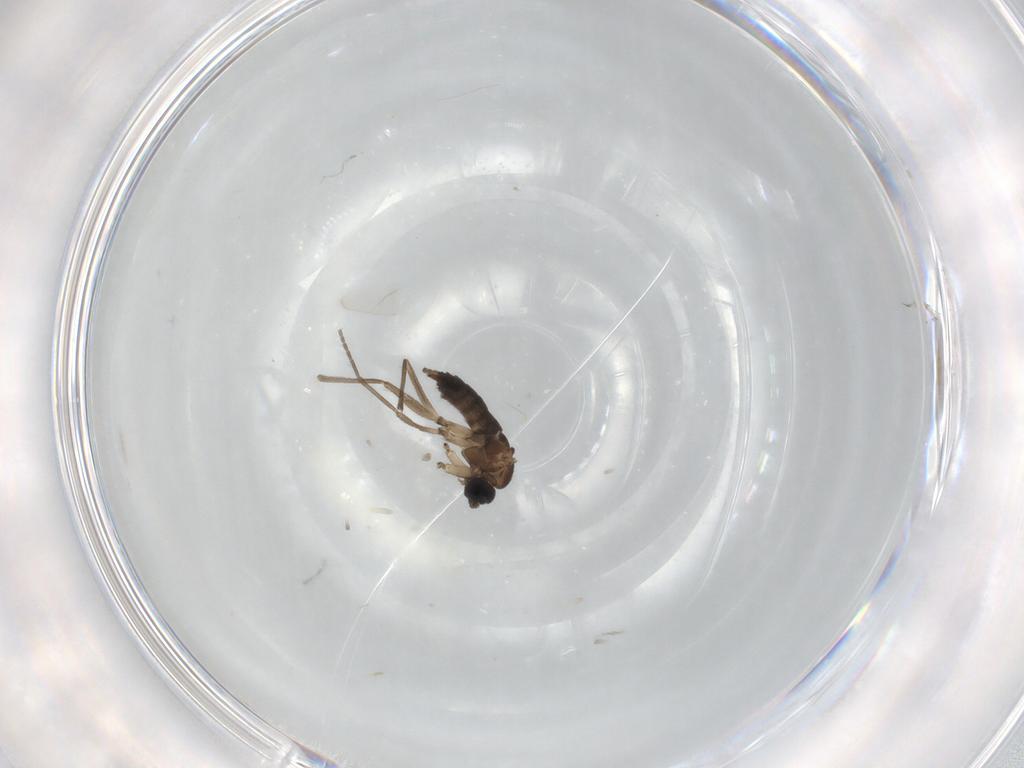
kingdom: Animalia
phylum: Arthropoda
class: Insecta
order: Diptera
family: Sciaridae
